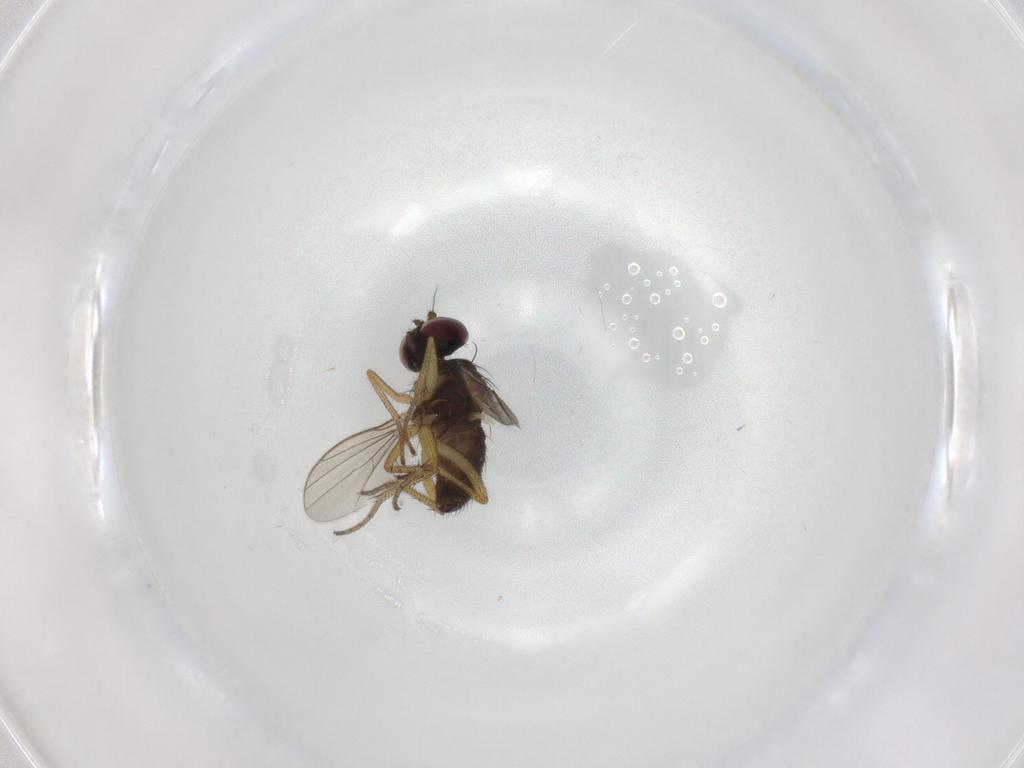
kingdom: Animalia
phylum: Arthropoda
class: Insecta
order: Diptera
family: Dolichopodidae
